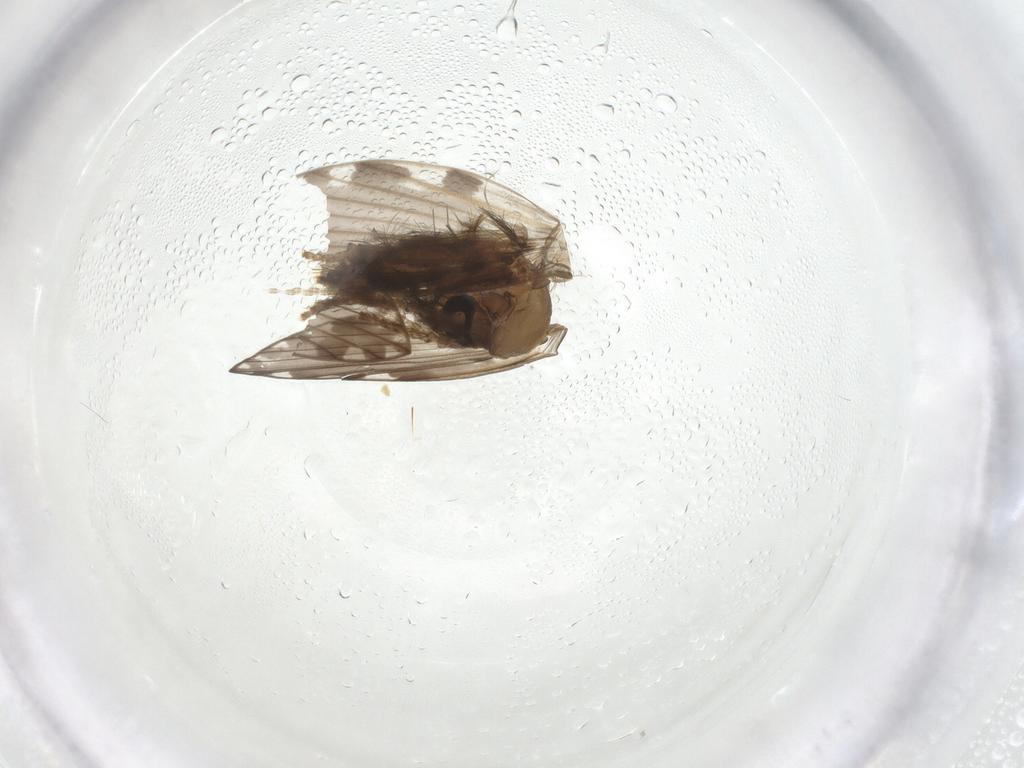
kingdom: Animalia
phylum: Arthropoda
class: Insecta
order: Diptera
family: Psychodidae
